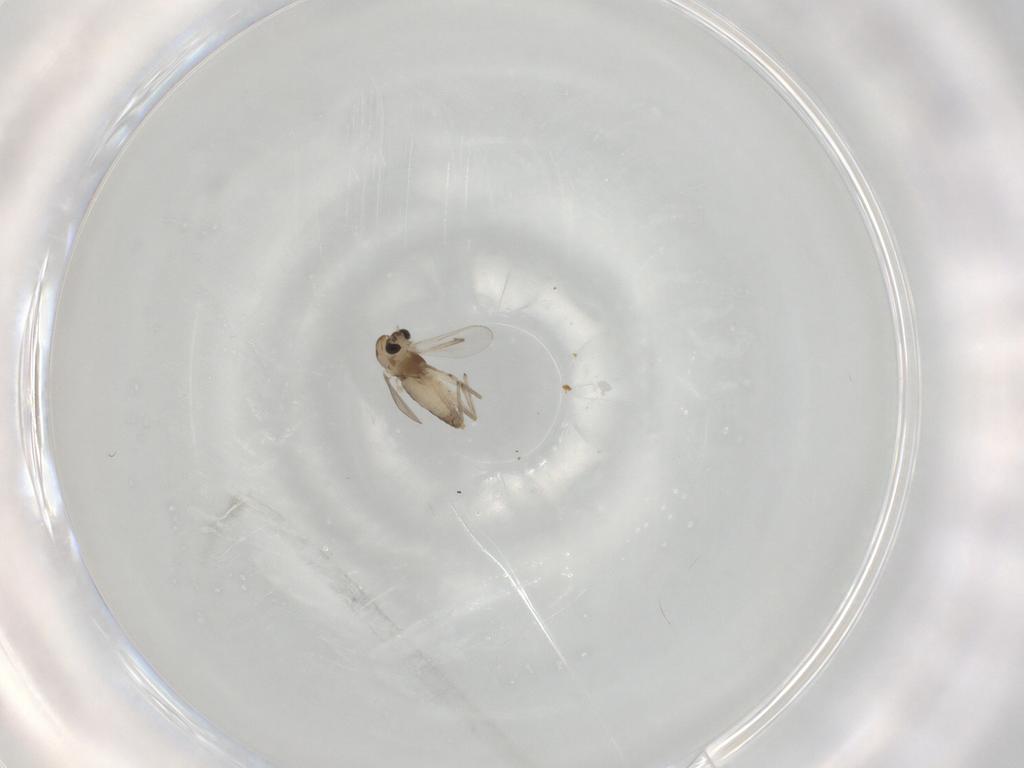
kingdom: Animalia
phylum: Arthropoda
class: Insecta
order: Diptera
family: Chironomidae
